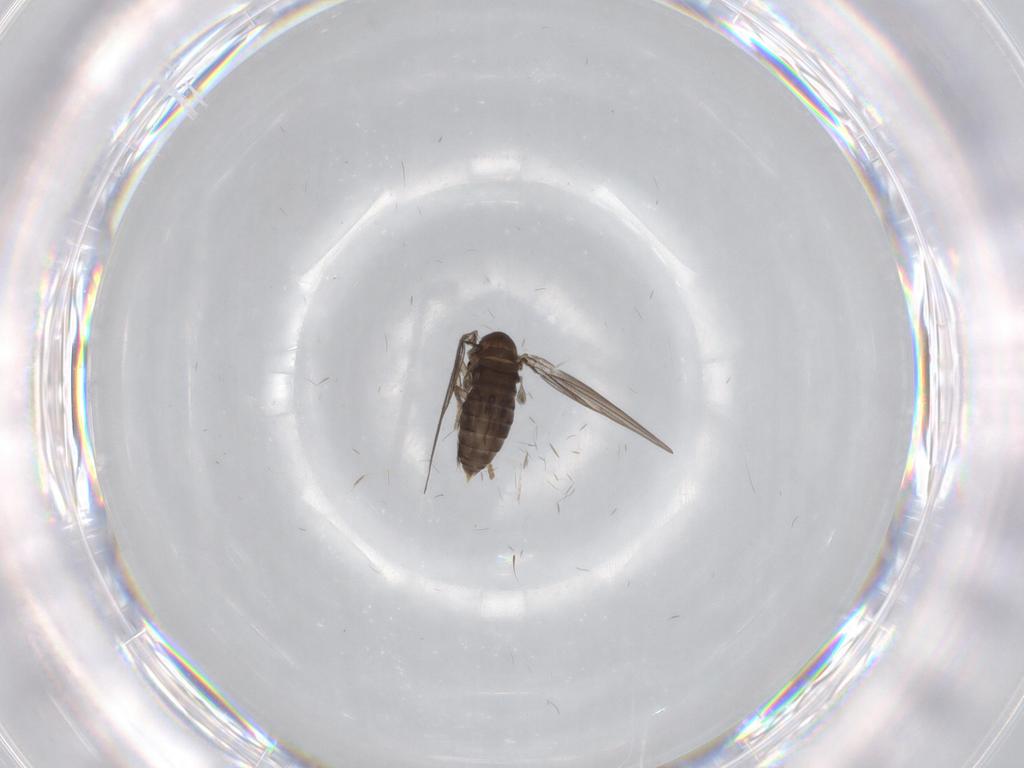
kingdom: Animalia
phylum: Arthropoda
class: Insecta
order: Diptera
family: Psychodidae
